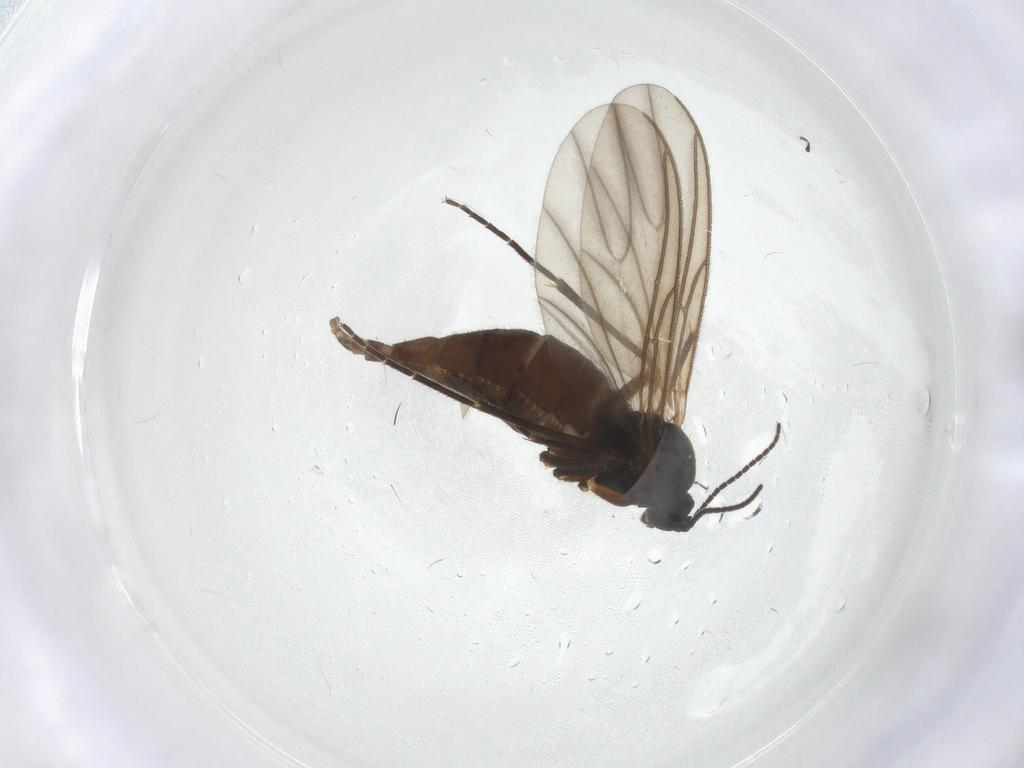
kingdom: Animalia
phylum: Arthropoda
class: Insecta
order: Diptera
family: Sciaridae
